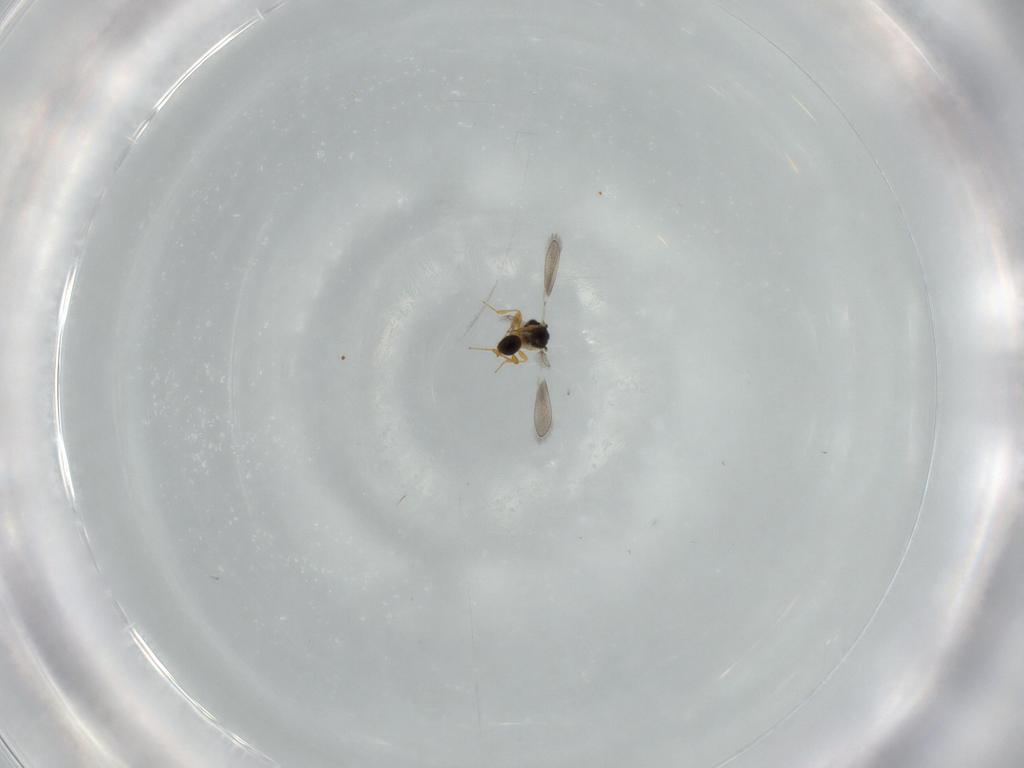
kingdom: Animalia
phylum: Arthropoda
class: Insecta
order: Hymenoptera
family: Platygastridae
